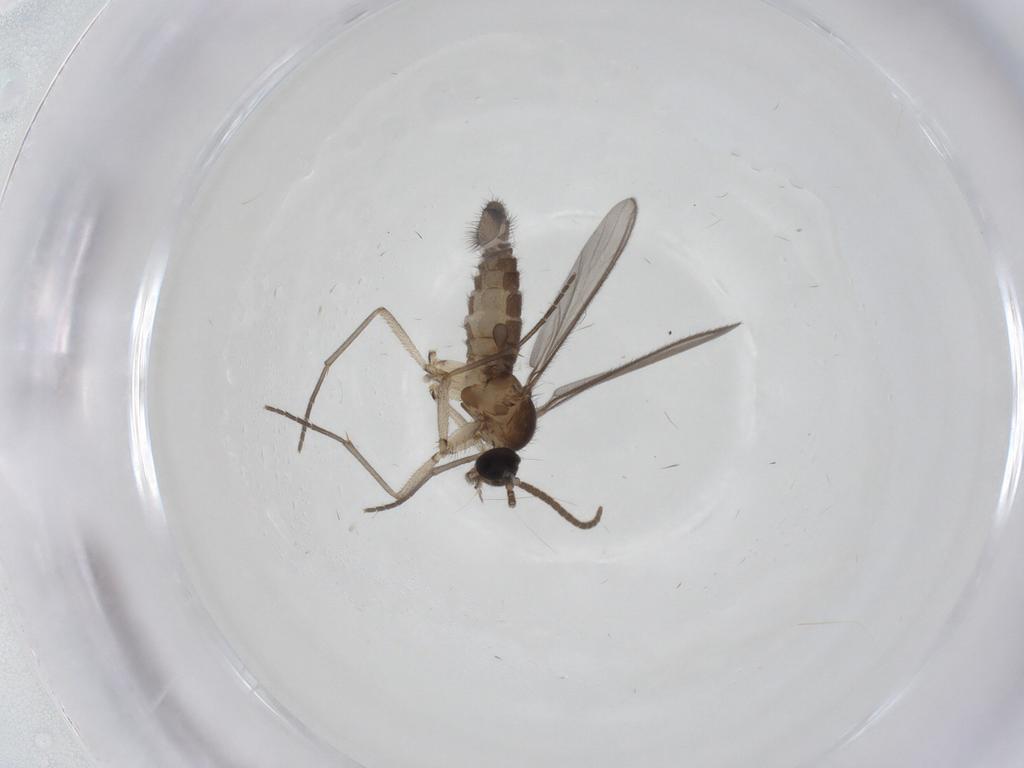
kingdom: Animalia
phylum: Arthropoda
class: Insecta
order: Diptera
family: Sciaridae
